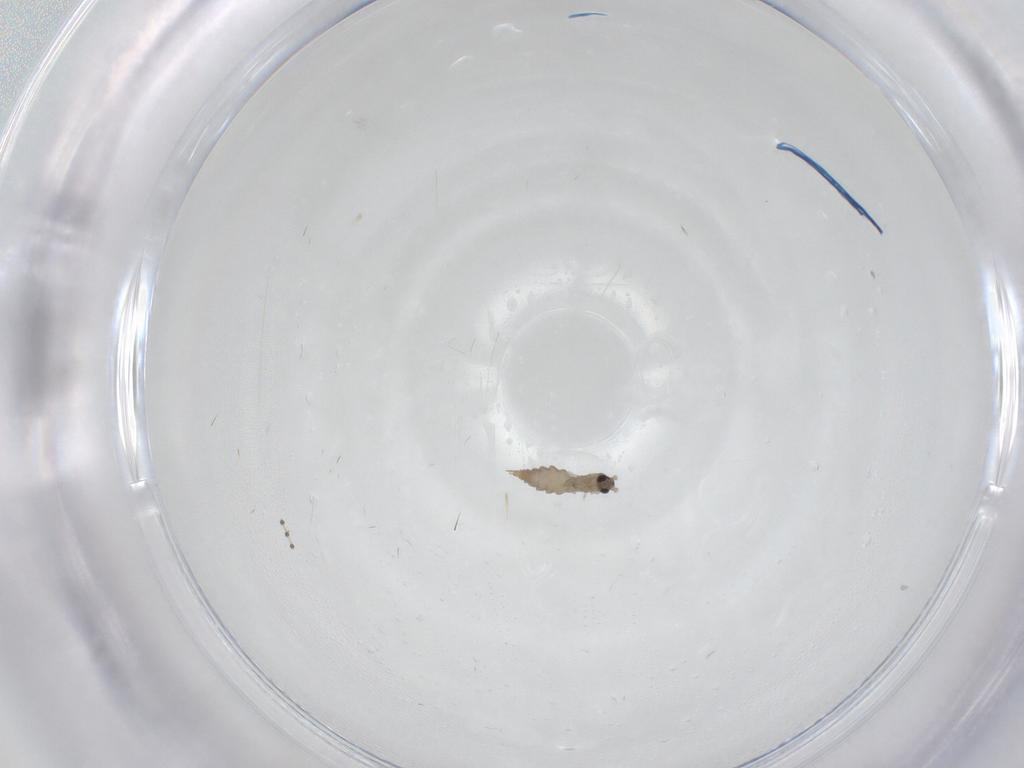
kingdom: Animalia
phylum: Arthropoda
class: Insecta
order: Diptera
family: Cecidomyiidae
